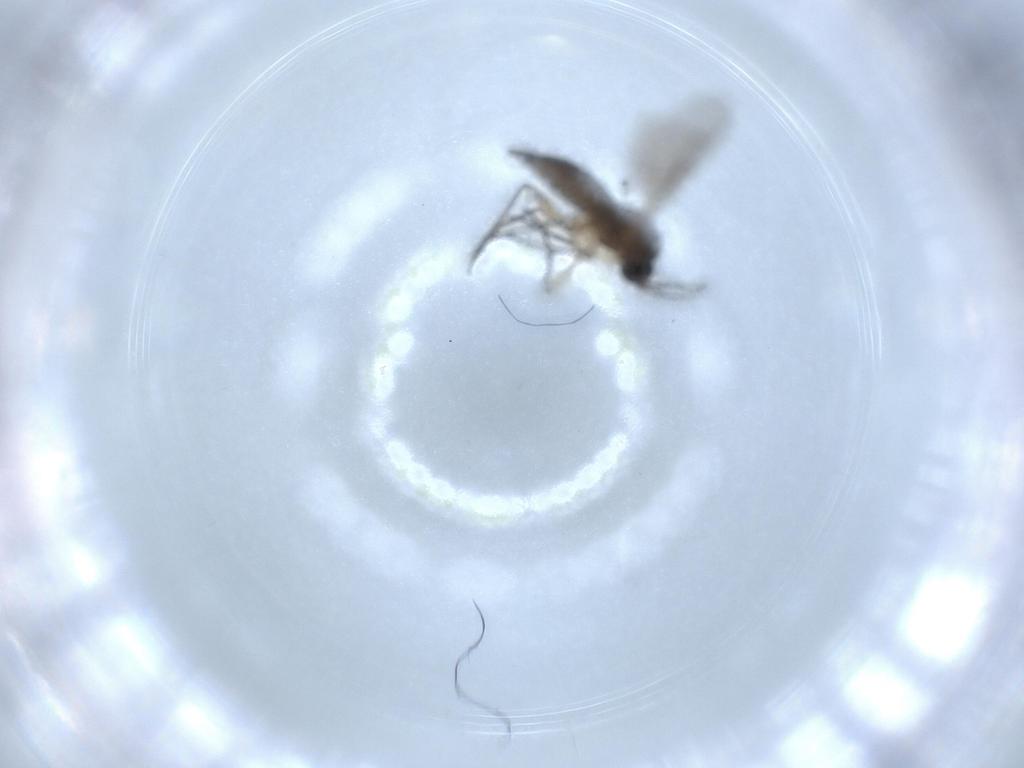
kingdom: Animalia
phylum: Arthropoda
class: Insecta
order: Diptera
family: Sciaridae
